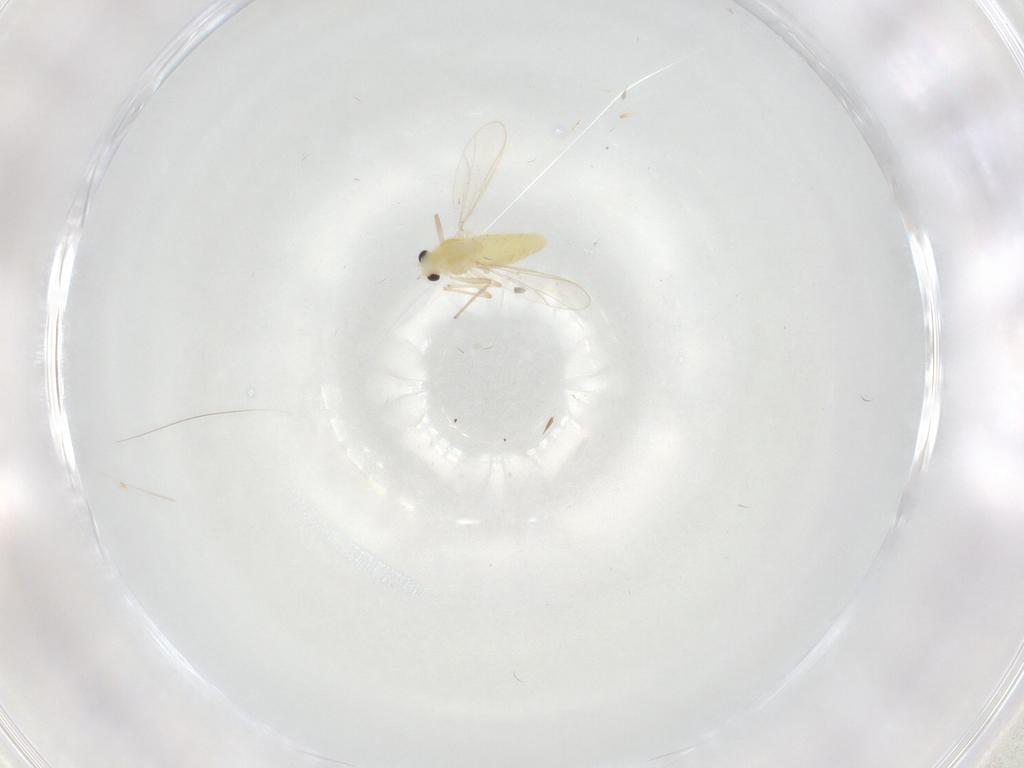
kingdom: Animalia
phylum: Arthropoda
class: Insecta
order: Diptera
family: Chironomidae
